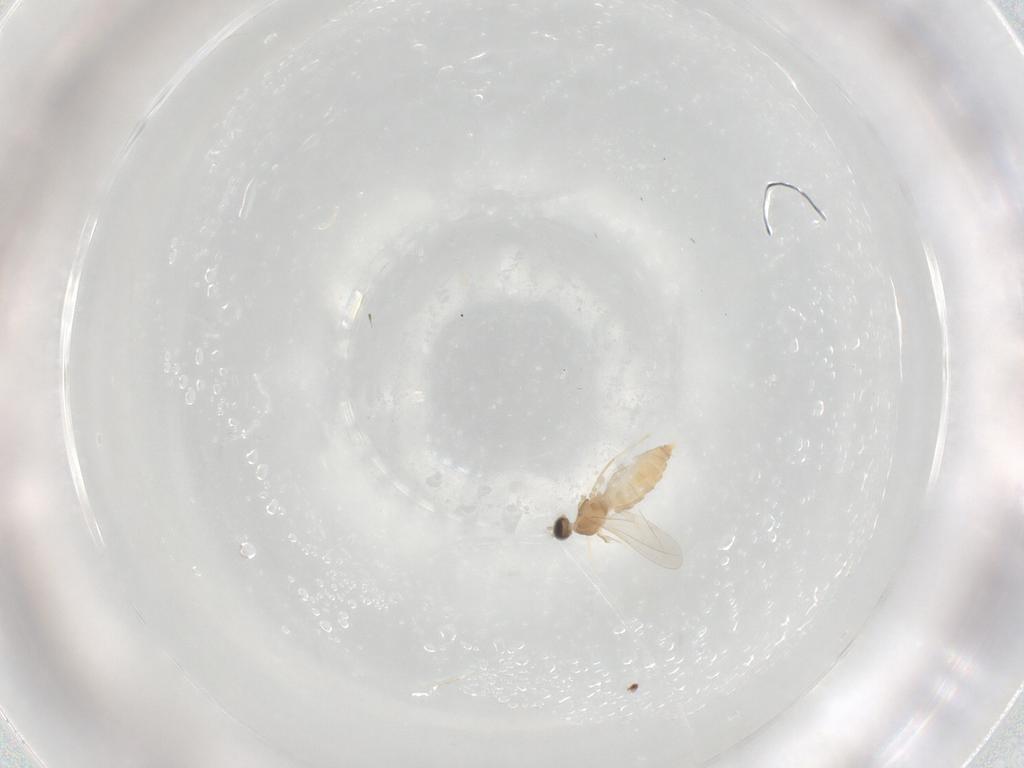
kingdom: Animalia
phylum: Arthropoda
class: Insecta
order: Diptera
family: Cecidomyiidae
